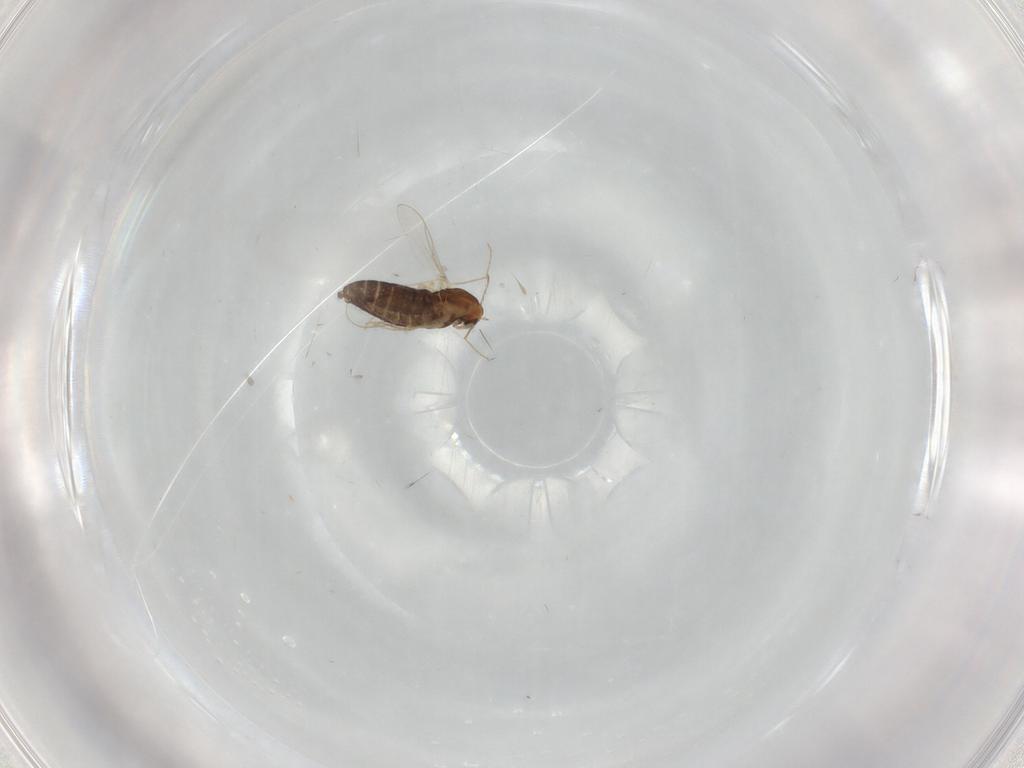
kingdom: Animalia
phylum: Arthropoda
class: Insecta
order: Diptera
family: Chironomidae
